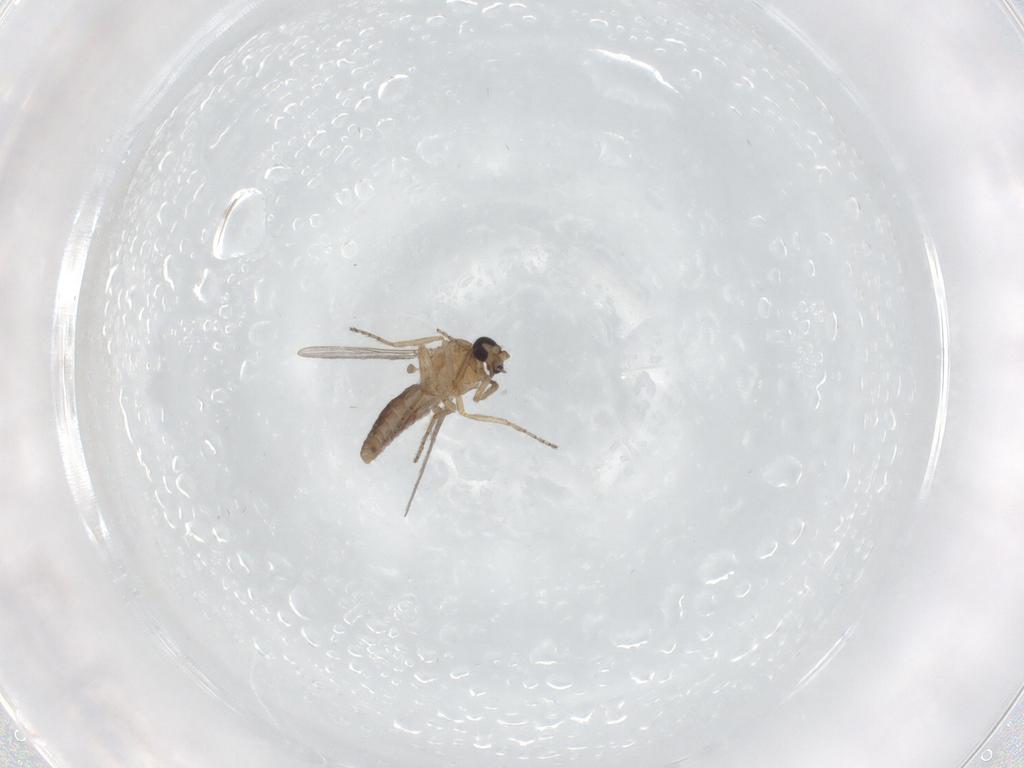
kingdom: Animalia
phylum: Arthropoda
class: Insecta
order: Diptera
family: Ceratopogonidae
